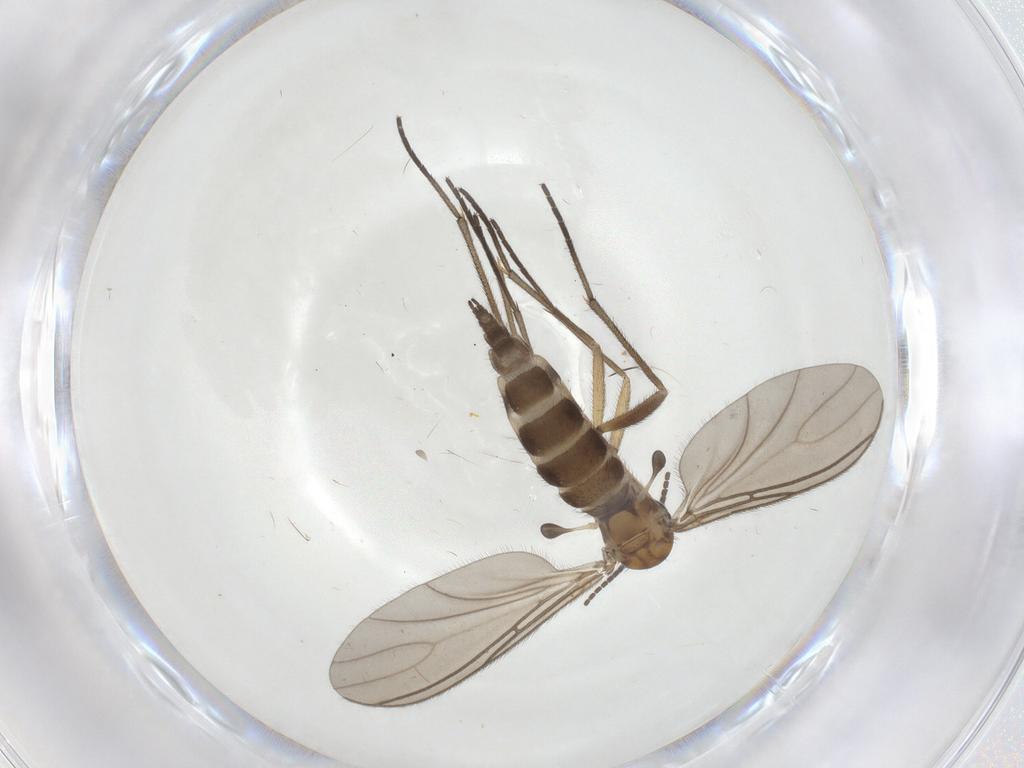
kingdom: Animalia
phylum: Arthropoda
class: Insecta
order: Diptera
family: Sciaridae
